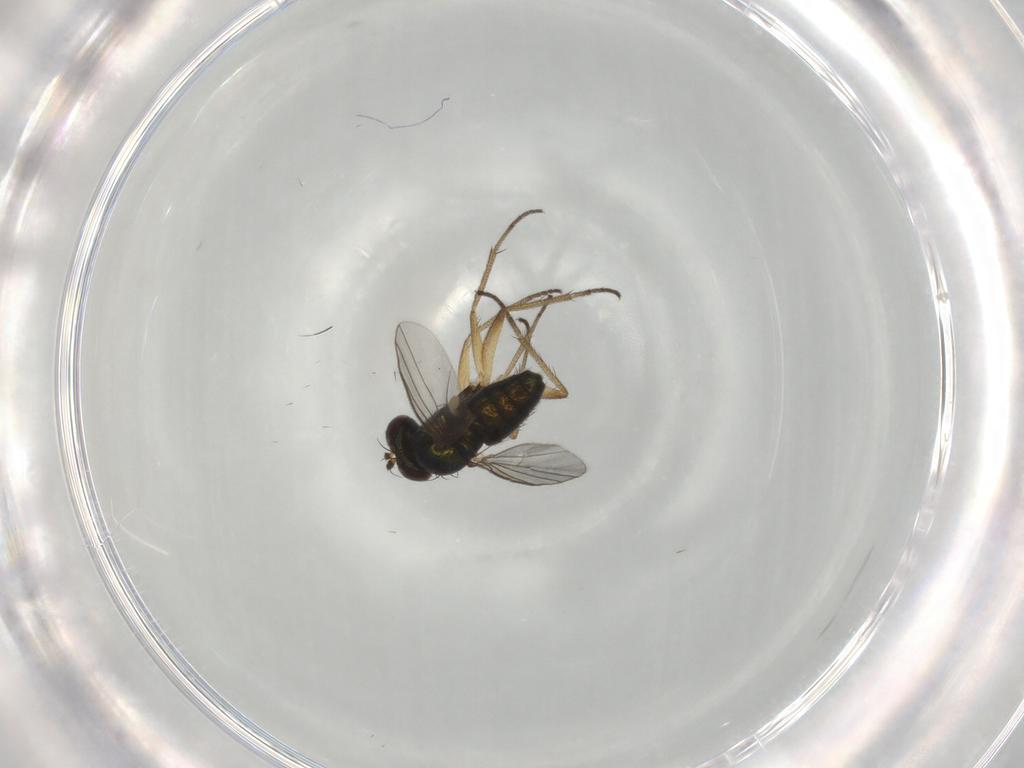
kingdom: Animalia
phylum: Arthropoda
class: Insecta
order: Diptera
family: Dolichopodidae
